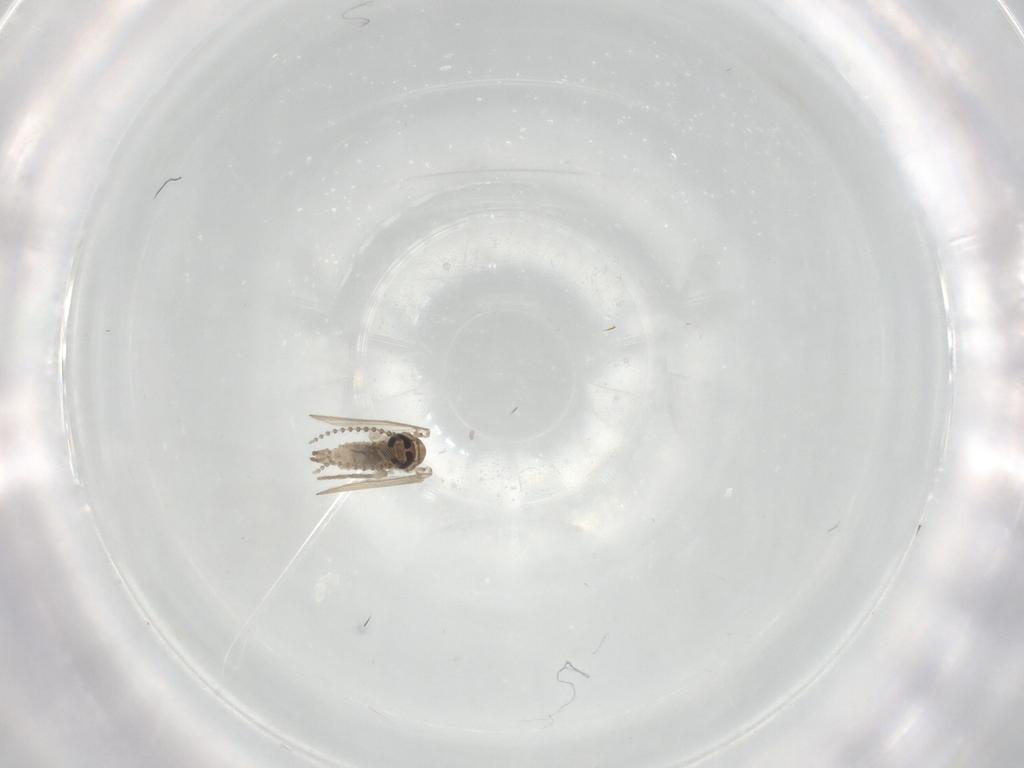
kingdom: Animalia
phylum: Arthropoda
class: Insecta
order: Diptera
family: Psychodidae
